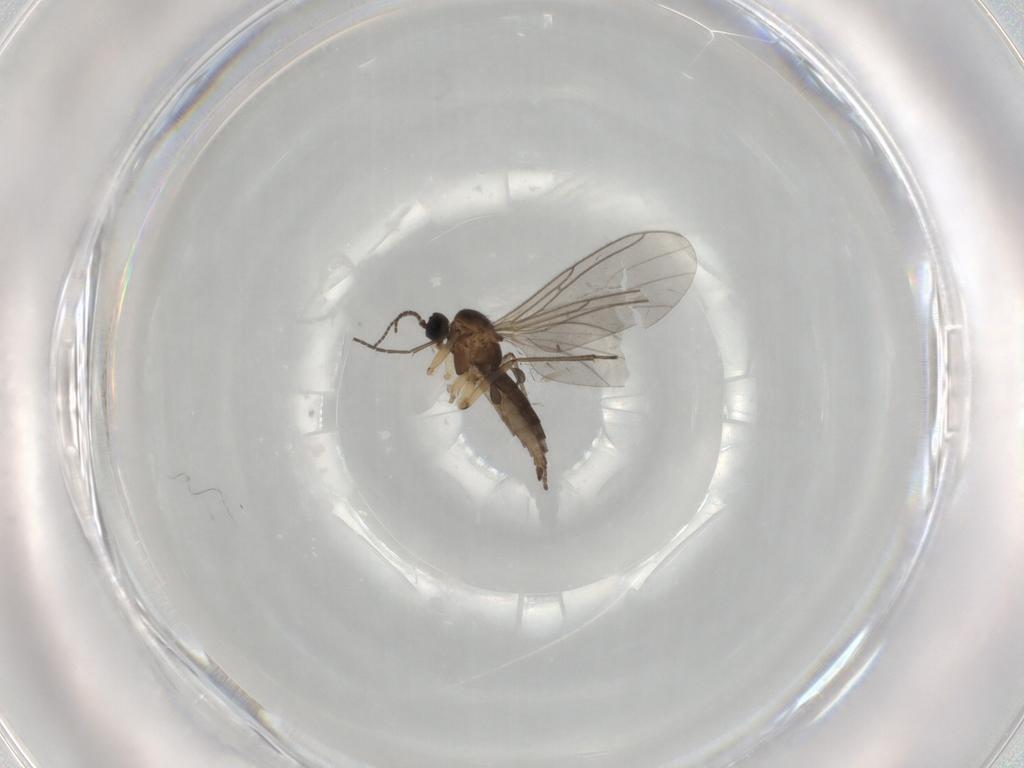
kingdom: Animalia
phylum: Arthropoda
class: Insecta
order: Diptera
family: Sciaridae
